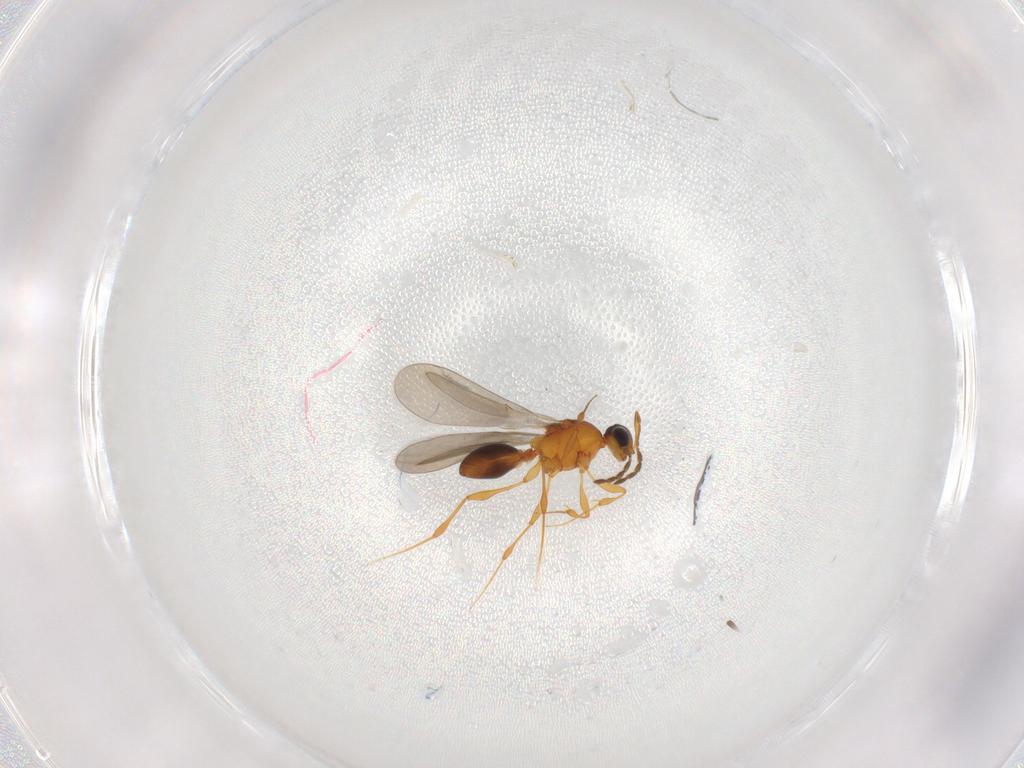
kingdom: Animalia
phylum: Arthropoda
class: Insecta
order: Hymenoptera
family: Platygastridae
